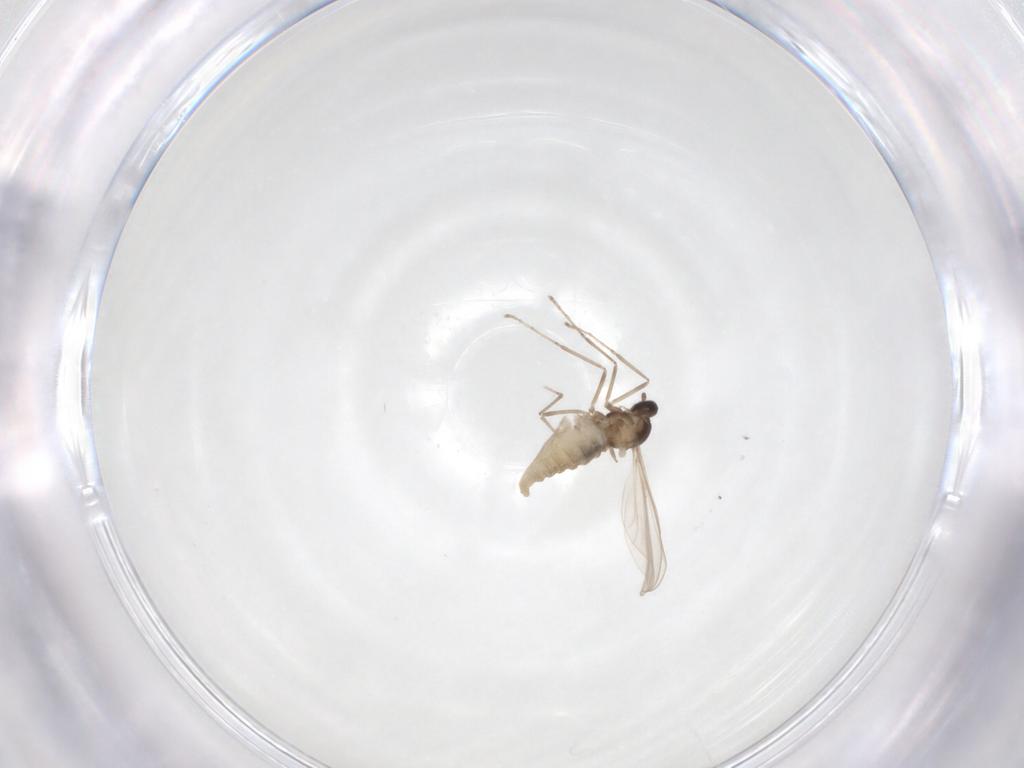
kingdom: Animalia
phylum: Arthropoda
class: Insecta
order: Diptera
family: Cecidomyiidae
